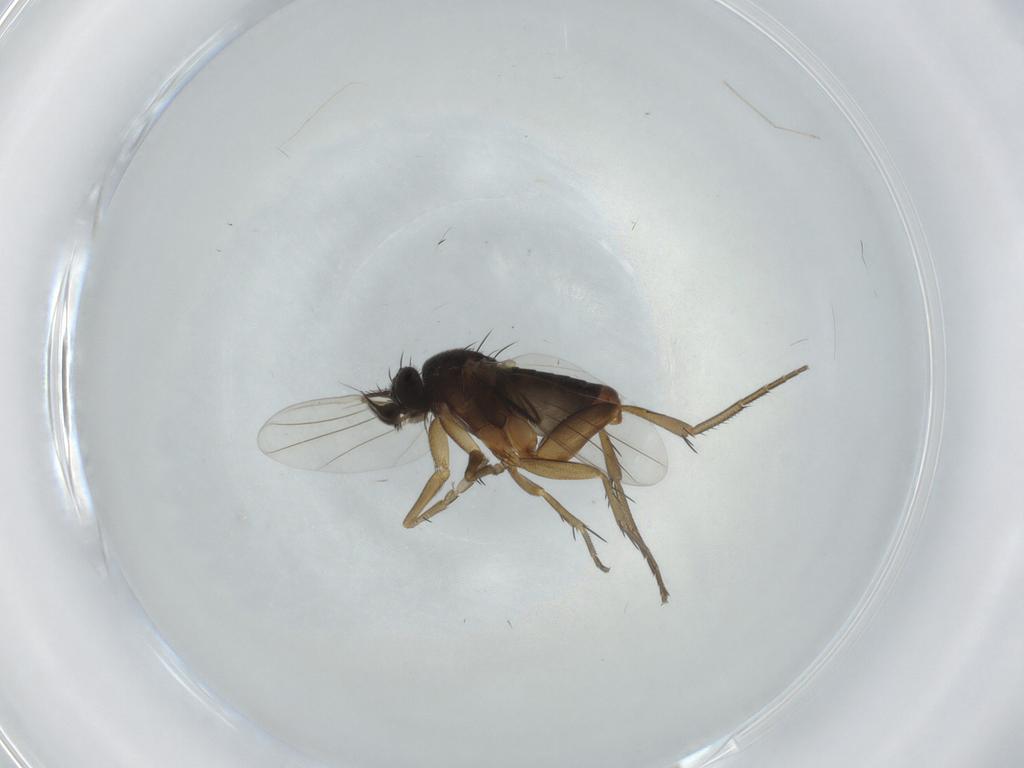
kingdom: Animalia
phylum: Arthropoda
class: Insecta
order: Diptera
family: Phoridae
